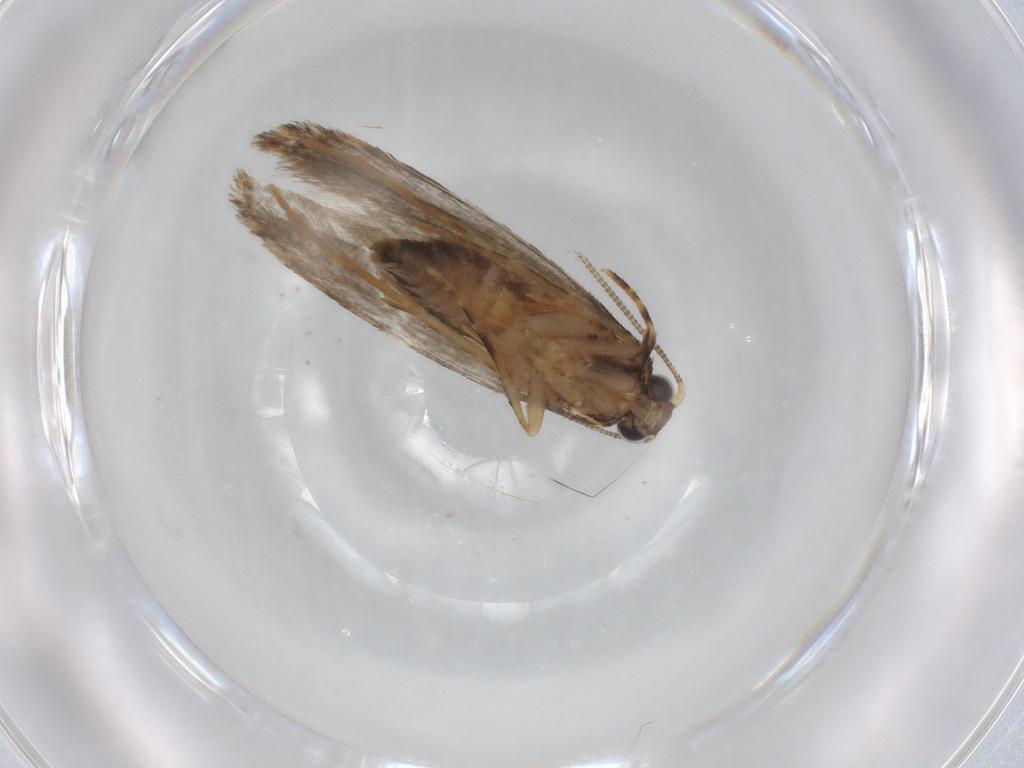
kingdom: Animalia
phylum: Arthropoda
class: Insecta
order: Lepidoptera
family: Tineidae
